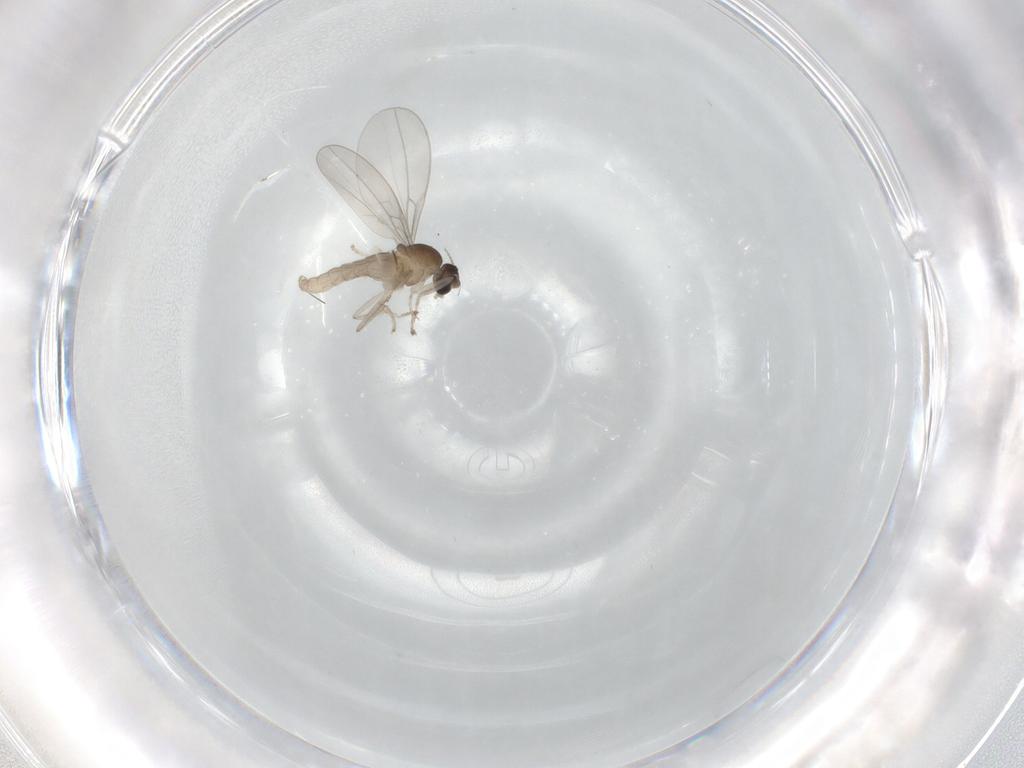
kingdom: Animalia
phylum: Arthropoda
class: Insecta
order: Diptera
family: Cecidomyiidae
